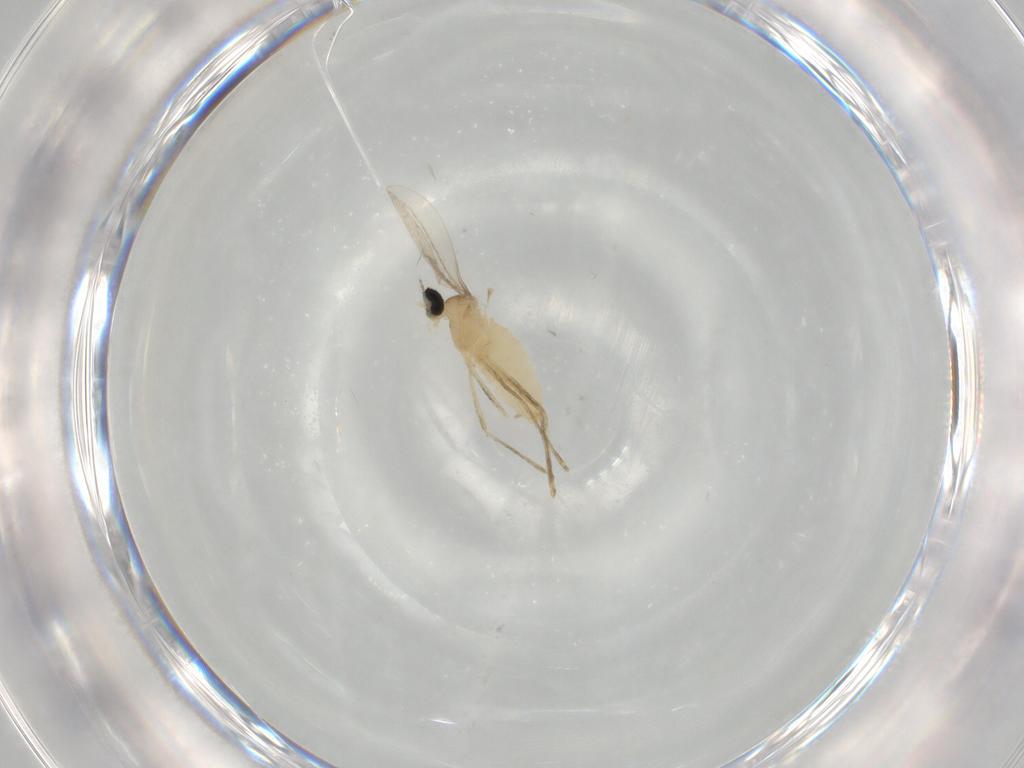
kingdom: Animalia
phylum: Arthropoda
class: Insecta
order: Diptera
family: Cecidomyiidae
